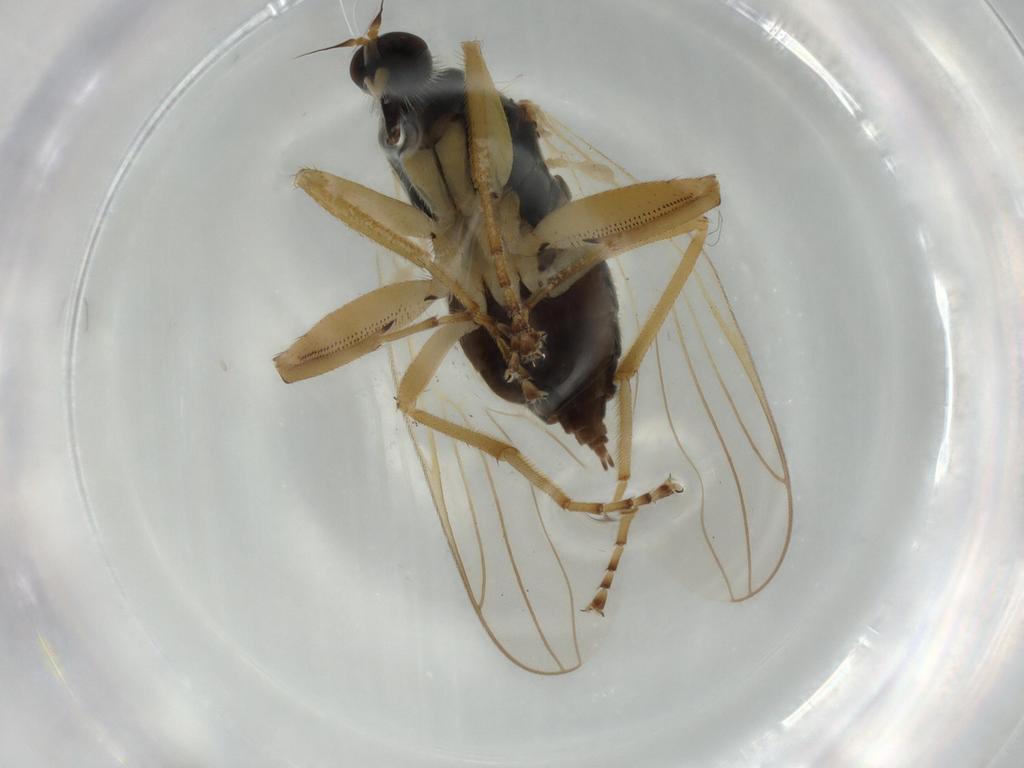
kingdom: Animalia
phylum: Arthropoda
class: Insecta
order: Diptera
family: Hybotidae
